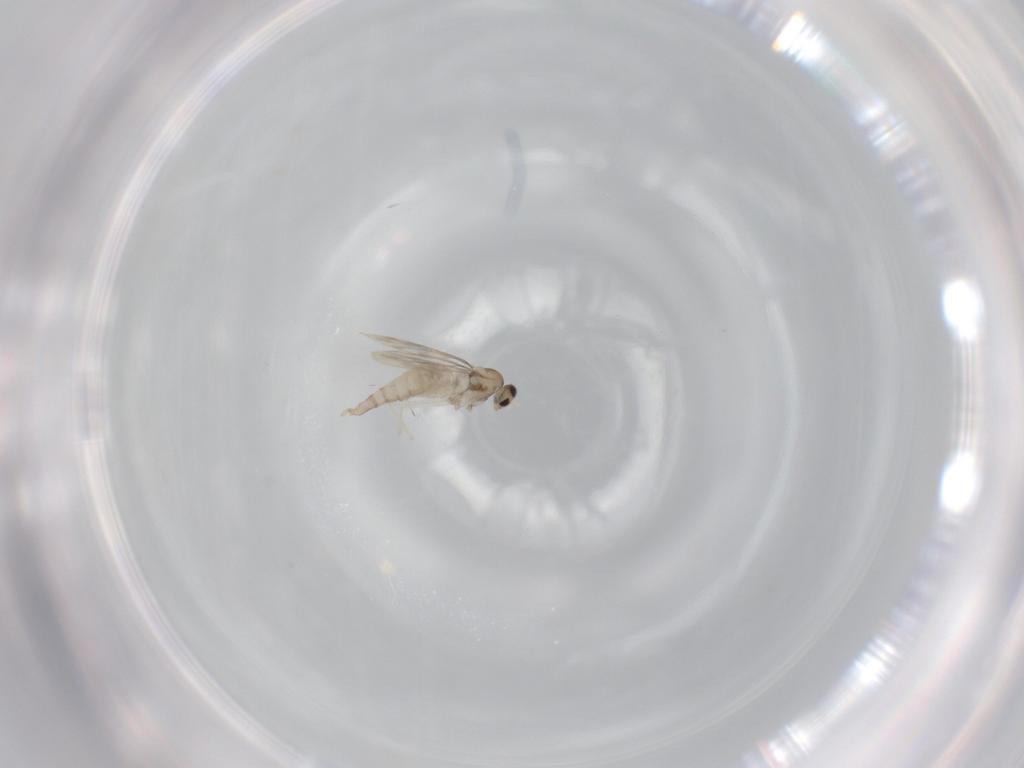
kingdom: Animalia
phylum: Arthropoda
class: Insecta
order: Diptera
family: Cecidomyiidae
